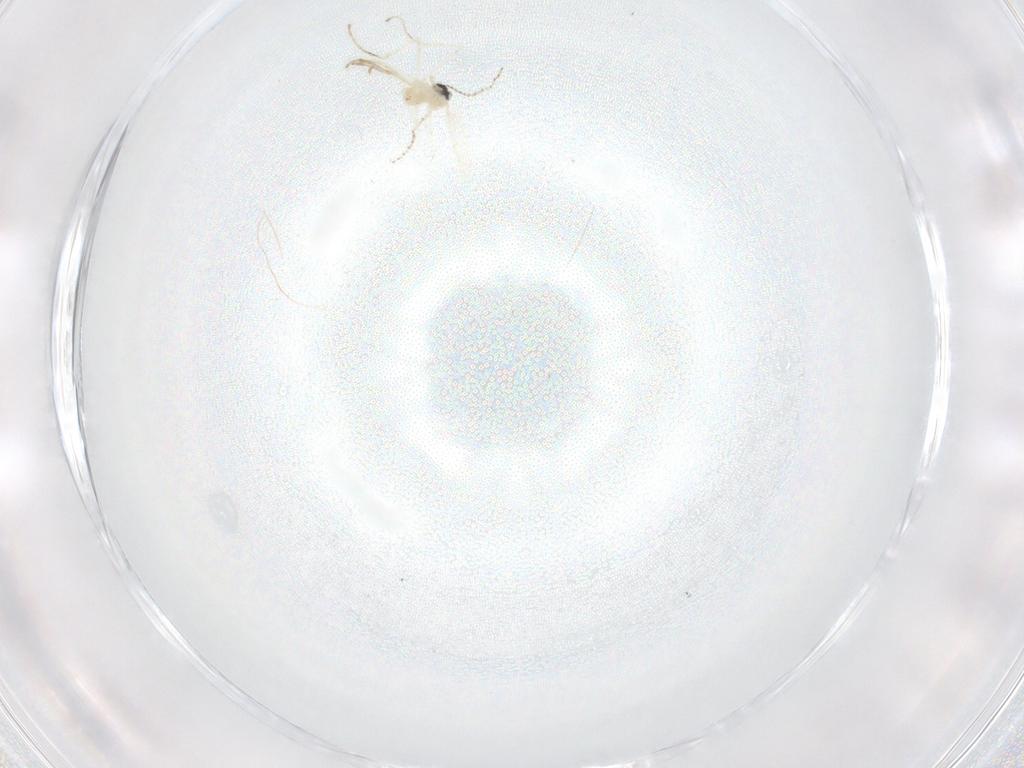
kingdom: Animalia
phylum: Arthropoda
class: Insecta
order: Diptera
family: Cecidomyiidae
